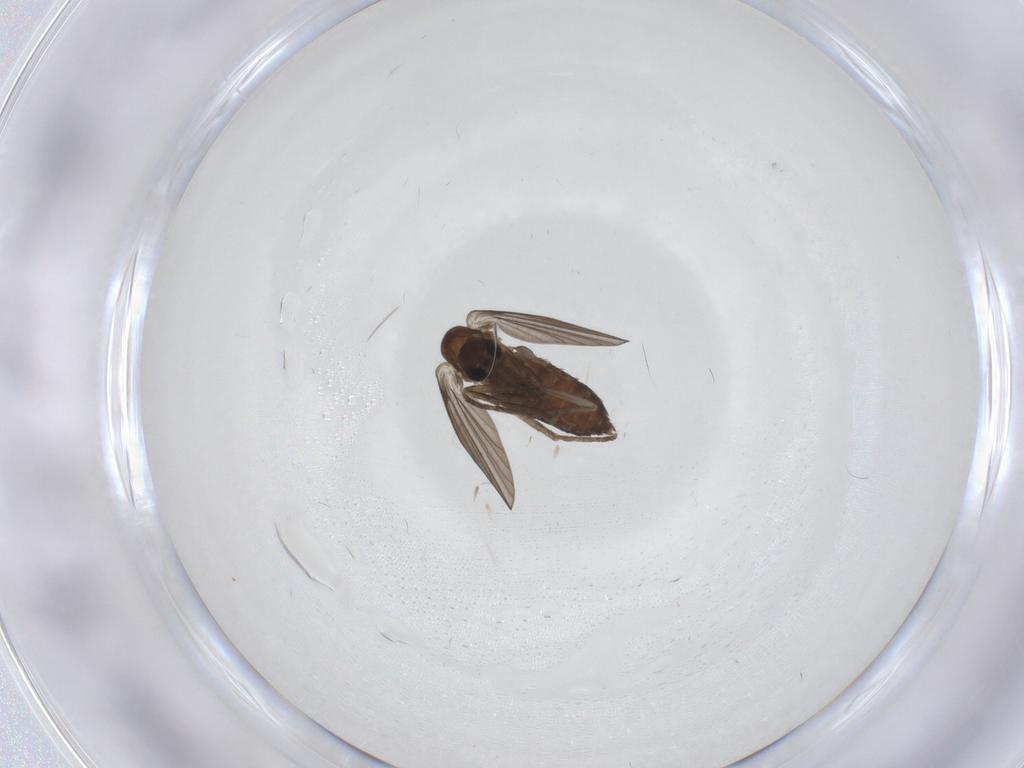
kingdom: Animalia
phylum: Arthropoda
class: Insecta
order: Diptera
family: Psychodidae
